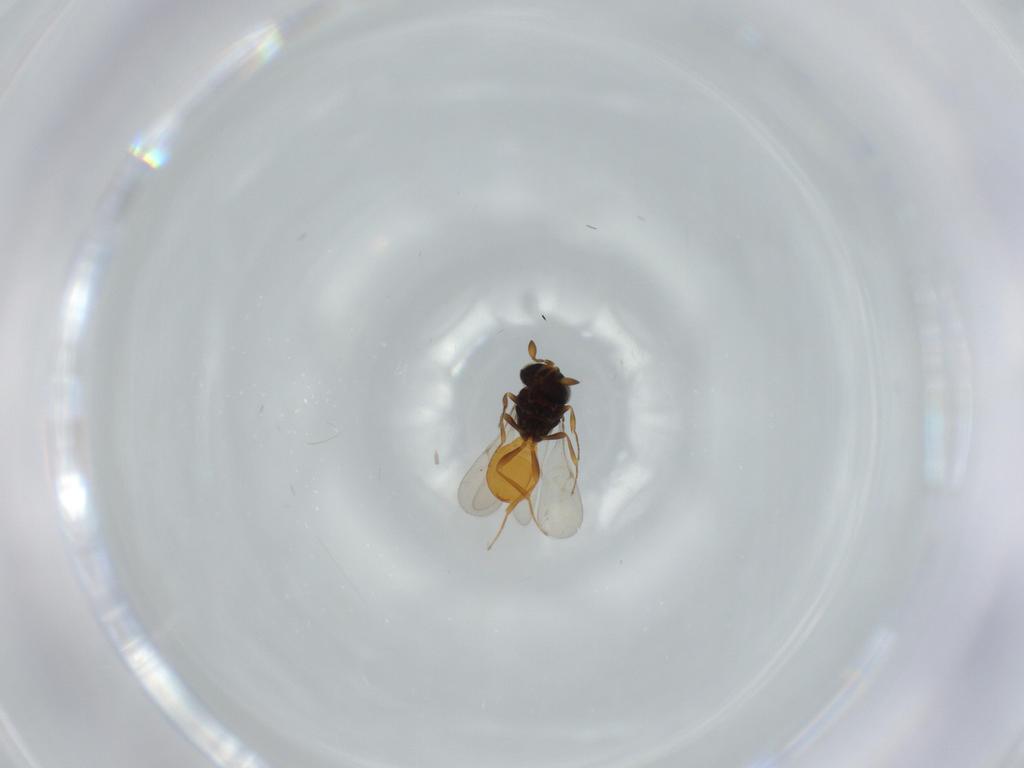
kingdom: Animalia
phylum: Arthropoda
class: Insecta
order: Hymenoptera
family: Scelionidae
